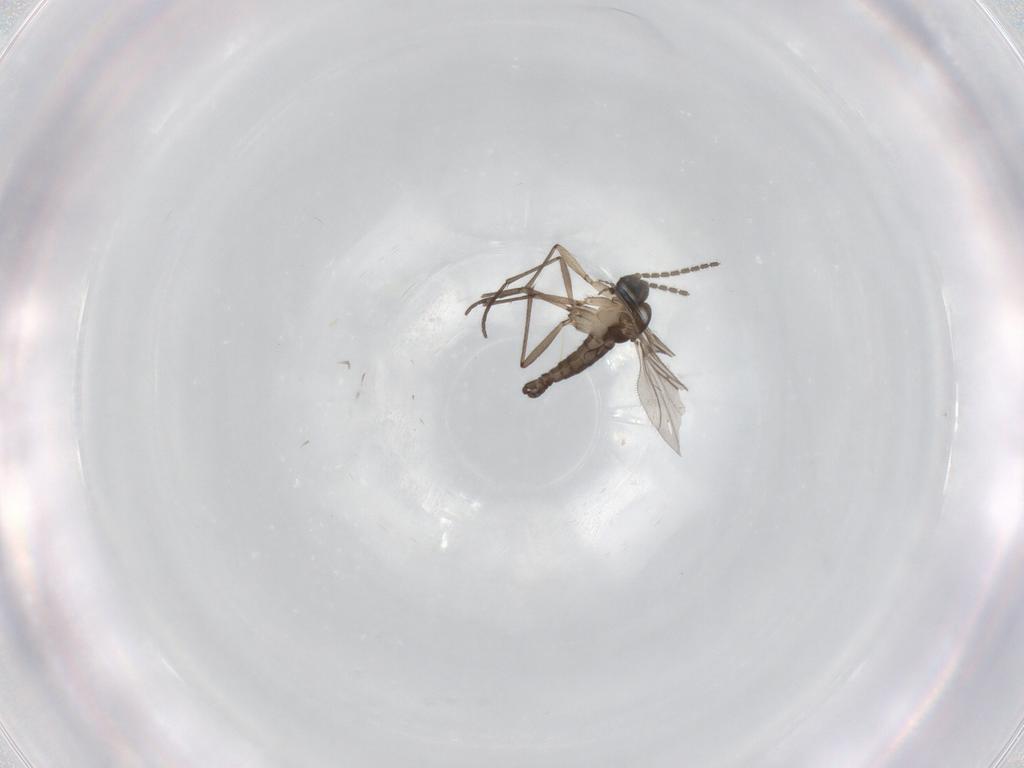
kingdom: Animalia
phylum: Arthropoda
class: Insecta
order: Diptera
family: Sciaridae
